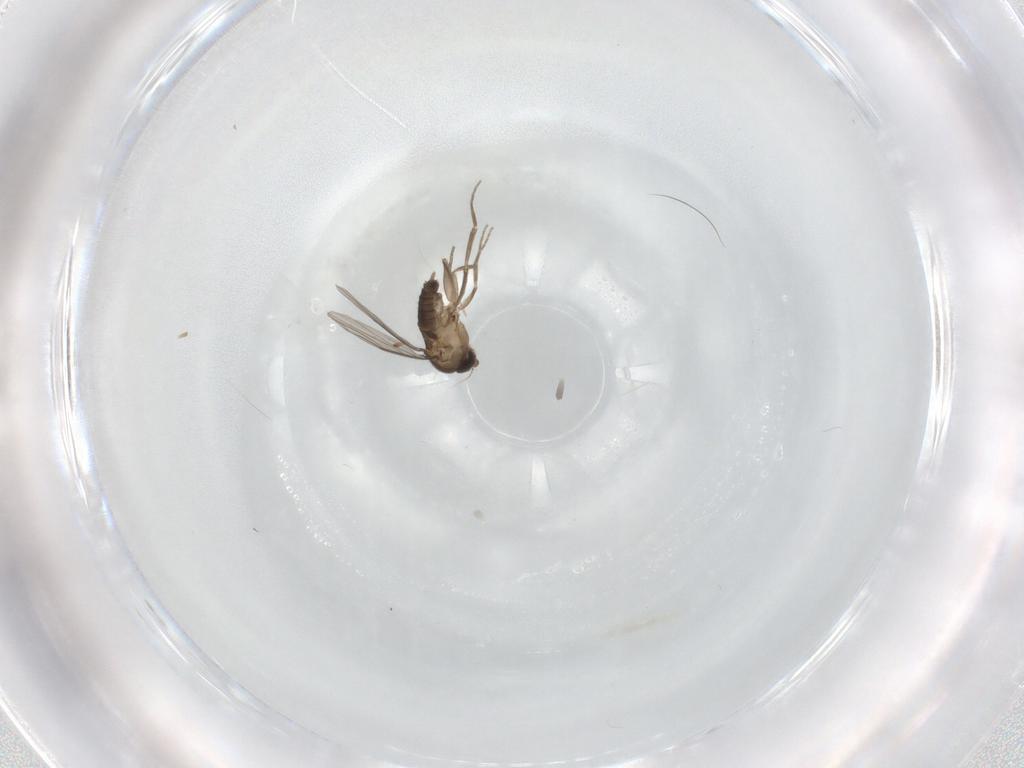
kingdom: Animalia
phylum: Arthropoda
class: Insecta
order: Diptera
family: Phoridae
